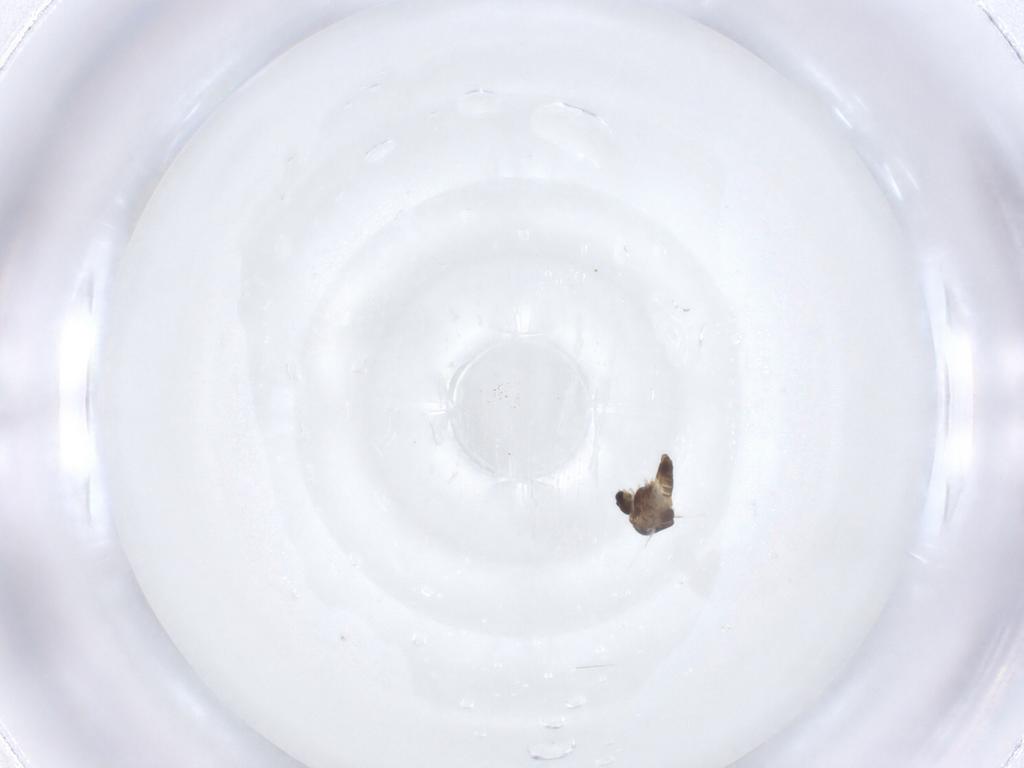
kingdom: Animalia
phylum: Arthropoda
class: Insecta
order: Diptera
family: Chironomidae
